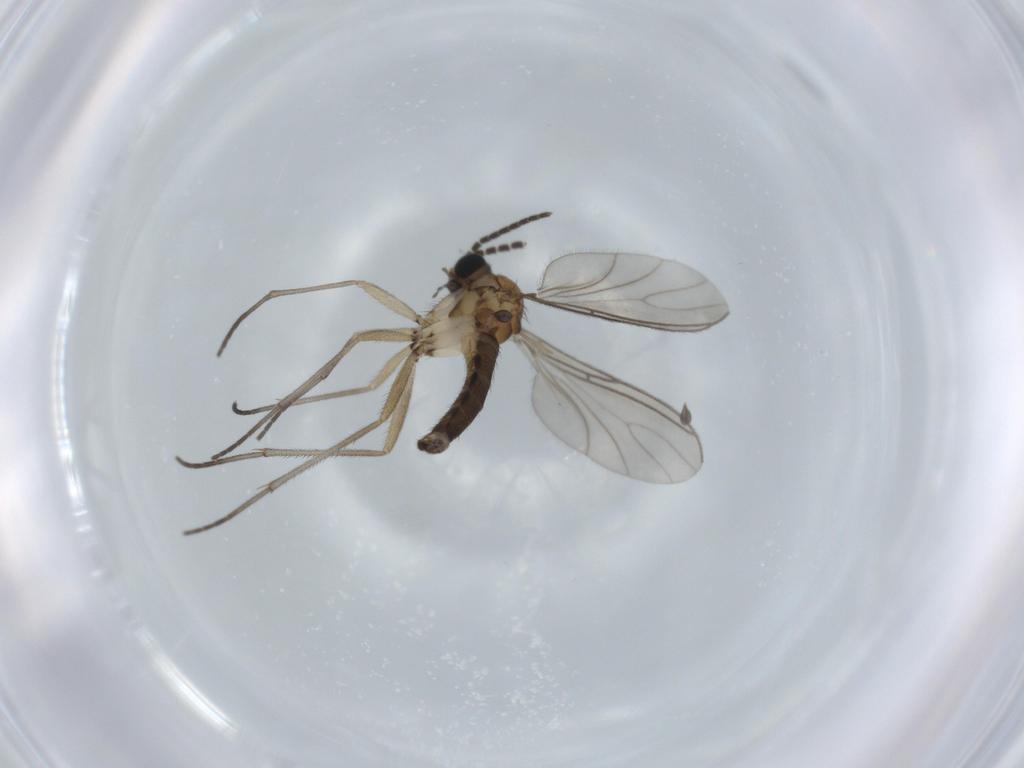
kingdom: Animalia
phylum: Arthropoda
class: Insecta
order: Diptera
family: Sciaridae
